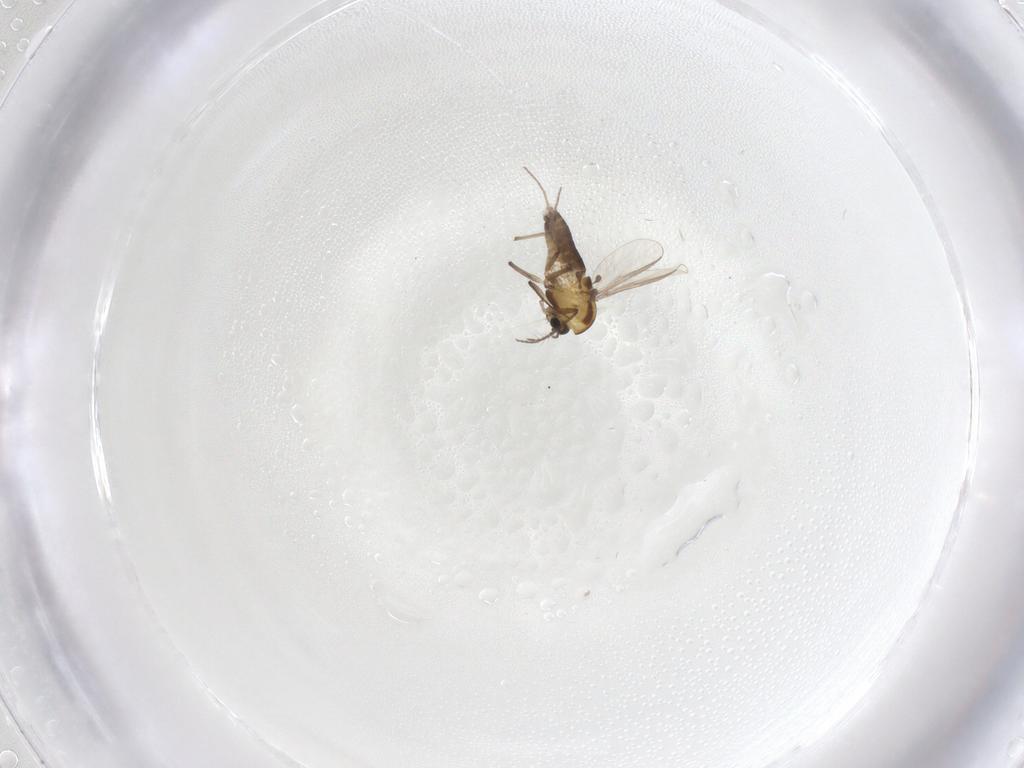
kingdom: Animalia
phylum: Arthropoda
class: Insecta
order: Diptera
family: Chironomidae
